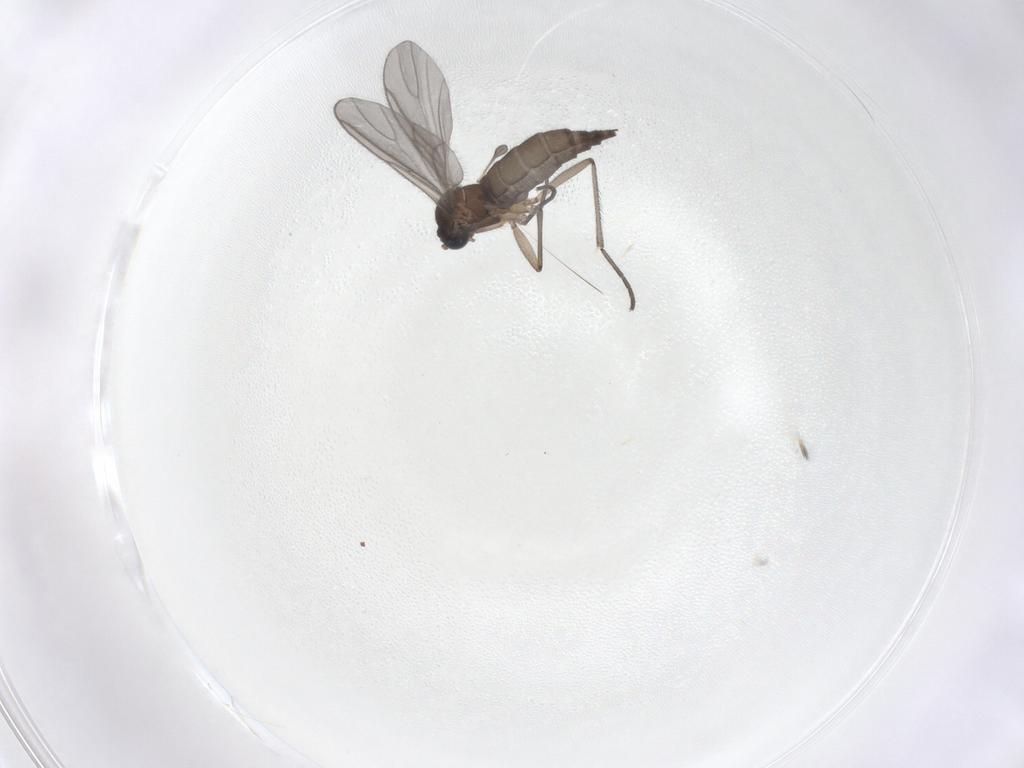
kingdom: Animalia
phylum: Arthropoda
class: Insecta
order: Diptera
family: Sciaridae
